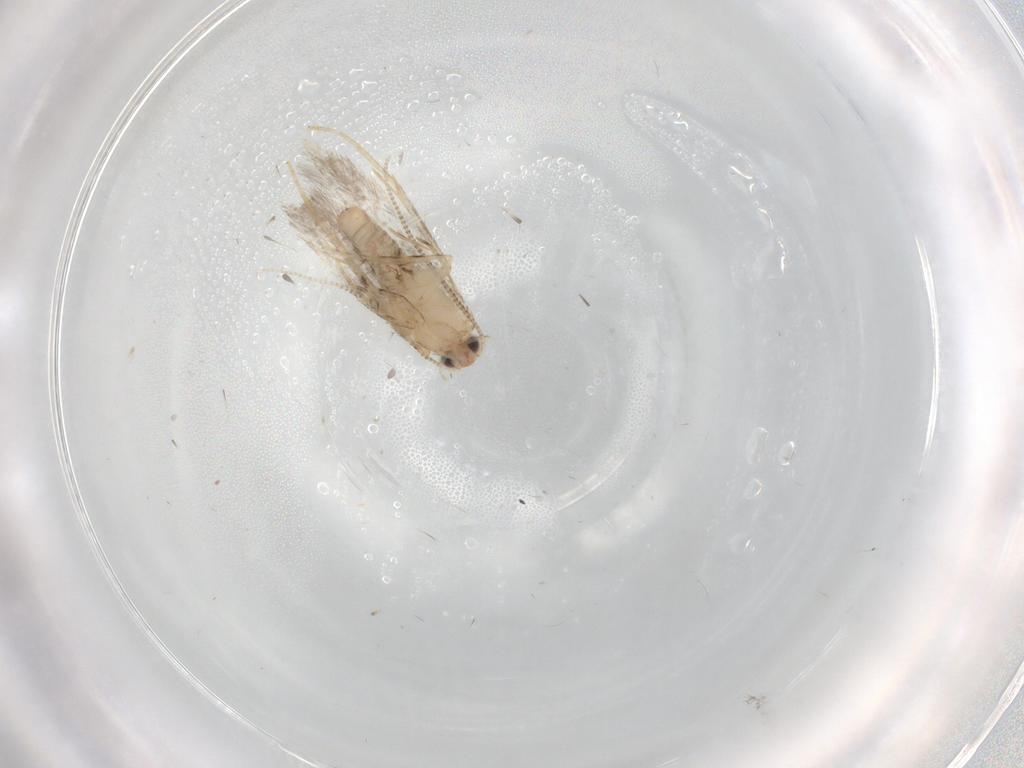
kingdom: Animalia
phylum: Arthropoda
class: Insecta
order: Lepidoptera
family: Tineidae
